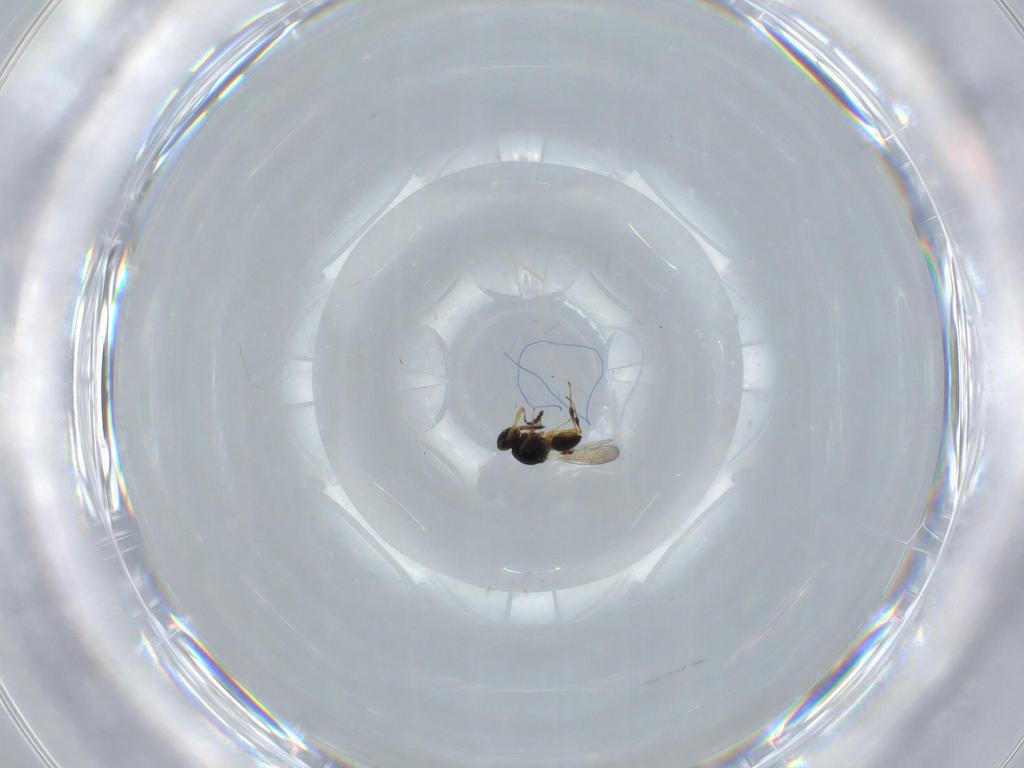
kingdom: Animalia
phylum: Arthropoda
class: Insecta
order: Hymenoptera
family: Platygastridae
